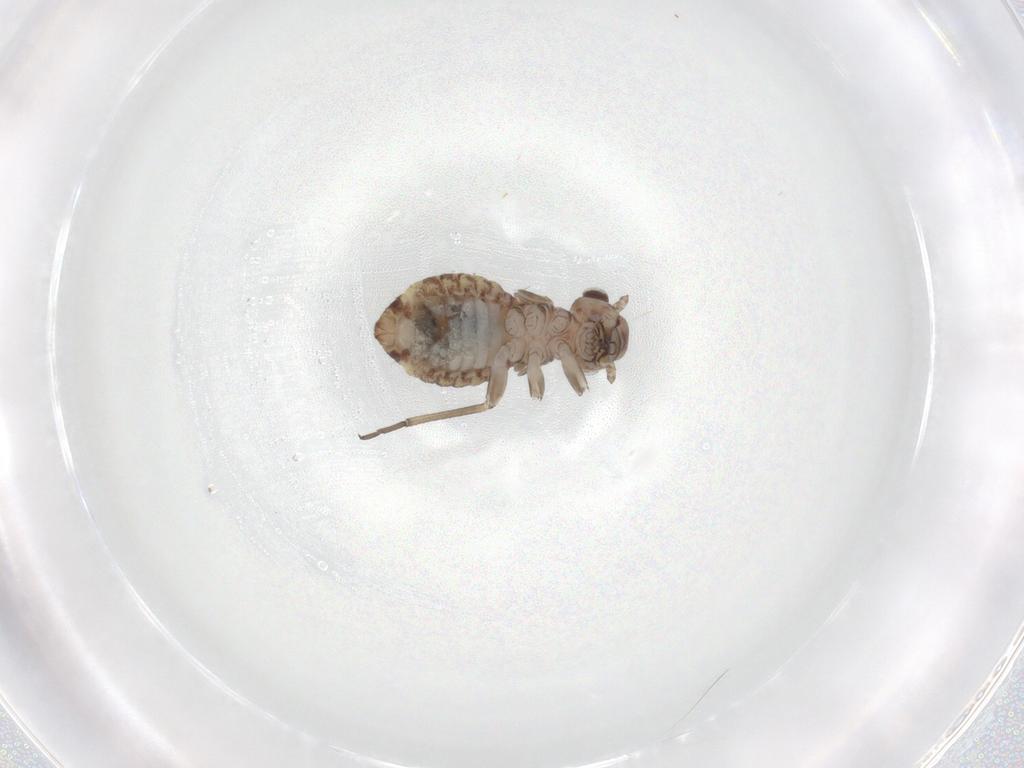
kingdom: Animalia
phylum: Arthropoda
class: Insecta
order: Psocodea
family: Psocidae
